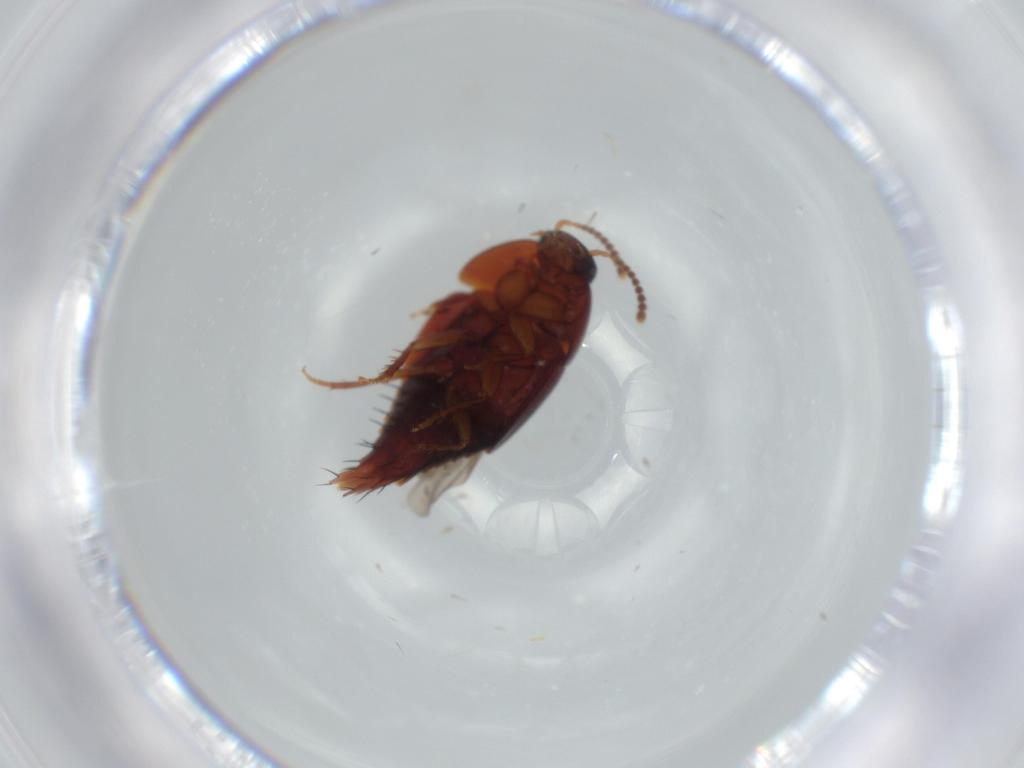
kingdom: Animalia
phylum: Arthropoda
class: Insecta
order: Coleoptera
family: Staphylinidae
